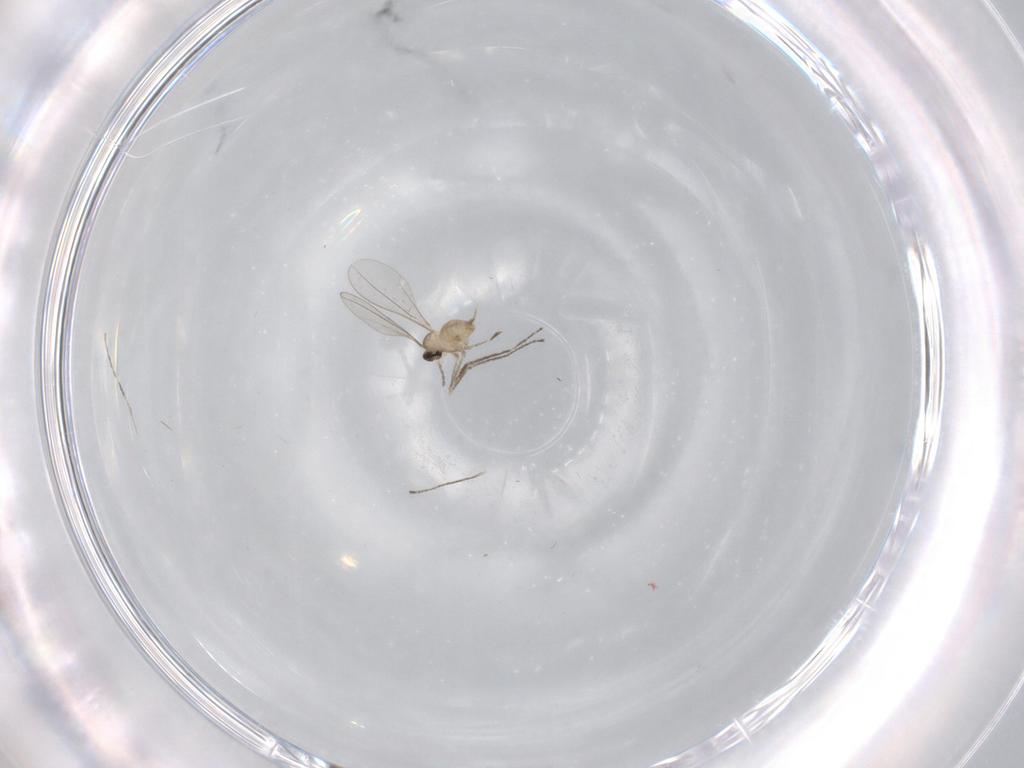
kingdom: Animalia
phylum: Arthropoda
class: Insecta
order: Diptera
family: Cecidomyiidae
